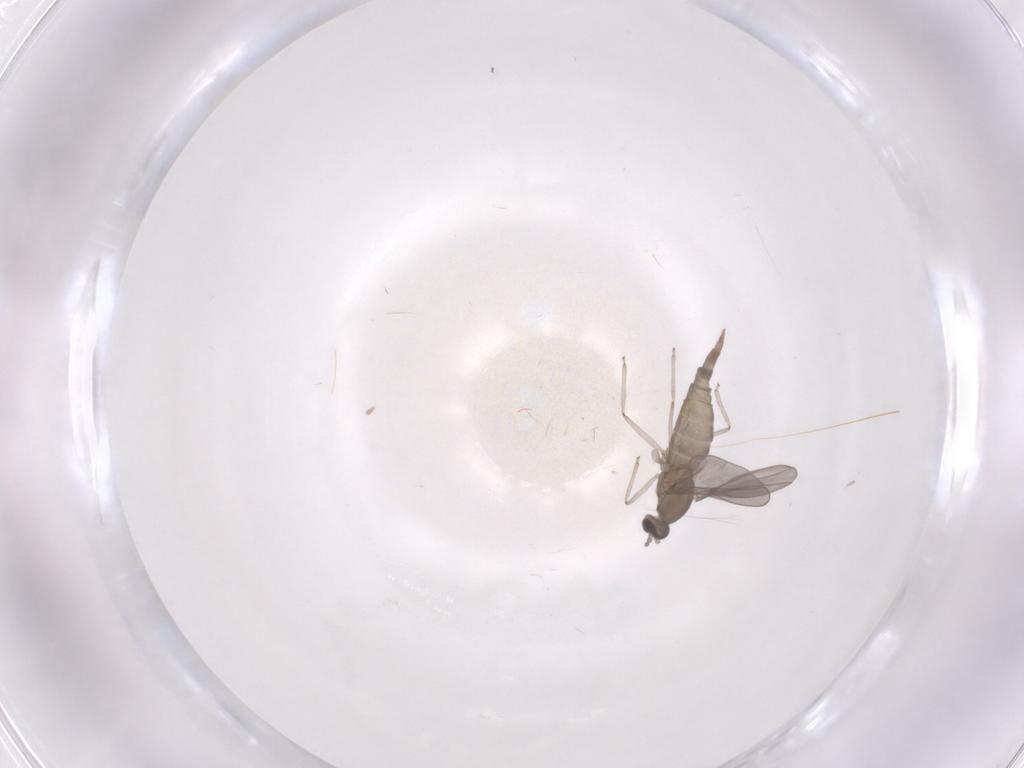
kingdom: Animalia
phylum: Arthropoda
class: Insecta
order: Diptera
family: Cecidomyiidae
